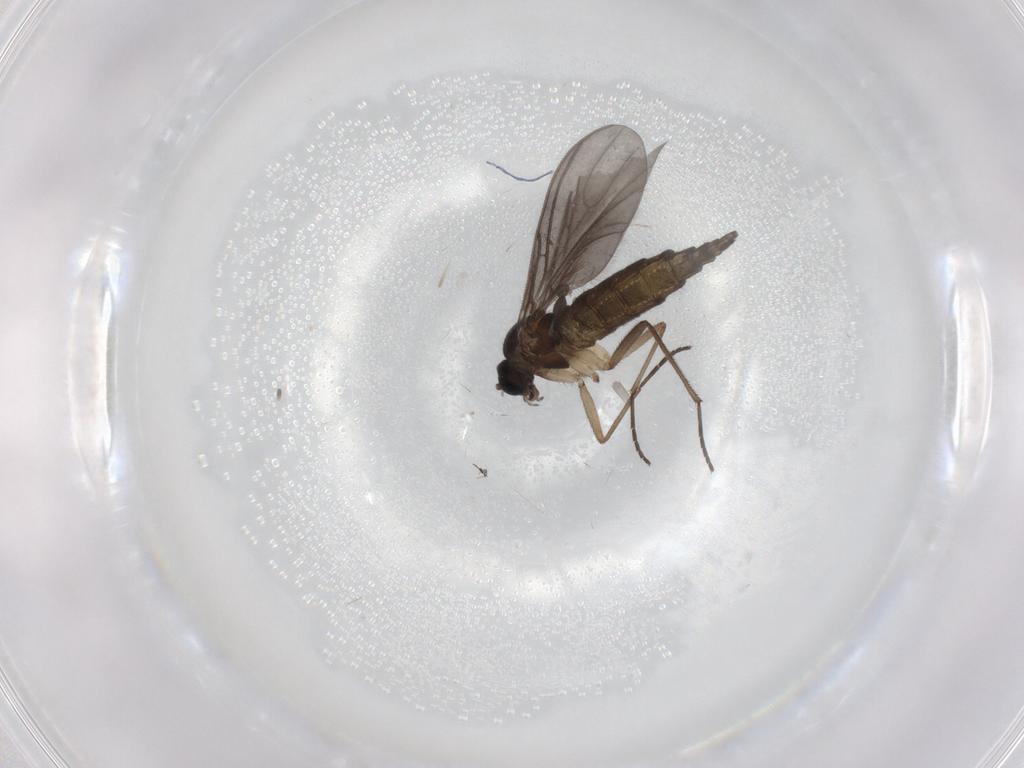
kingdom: Animalia
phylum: Arthropoda
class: Insecta
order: Diptera
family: Sciaridae
